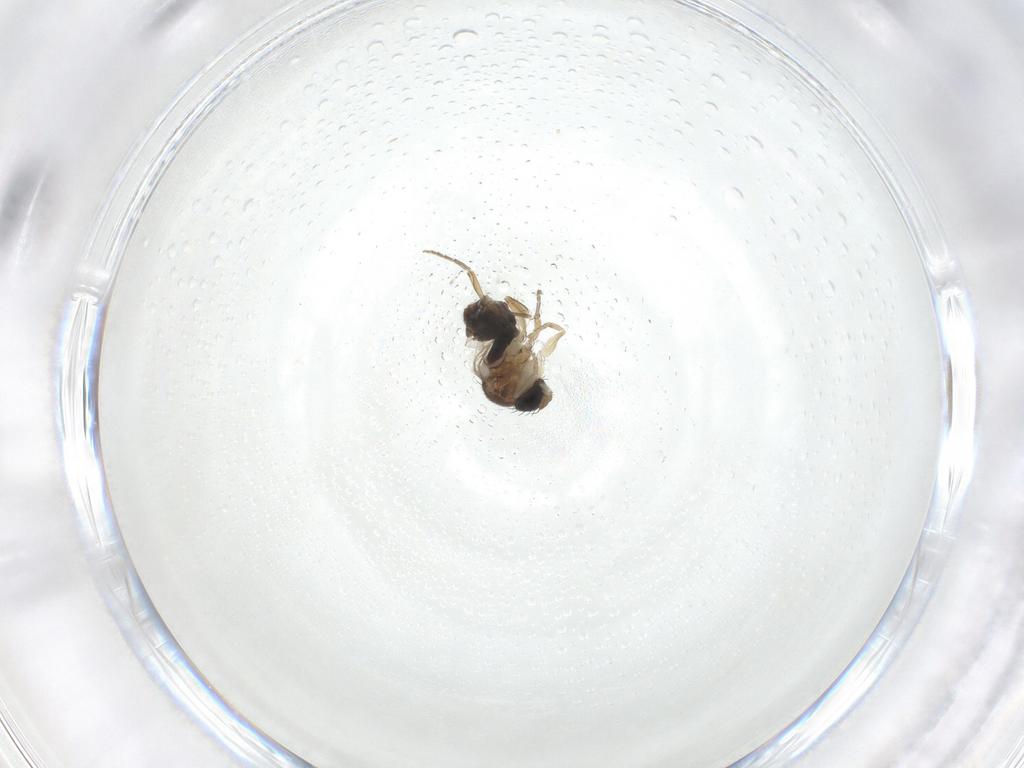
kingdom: Animalia
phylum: Arthropoda
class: Insecta
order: Diptera
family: Ceratopogonidae
